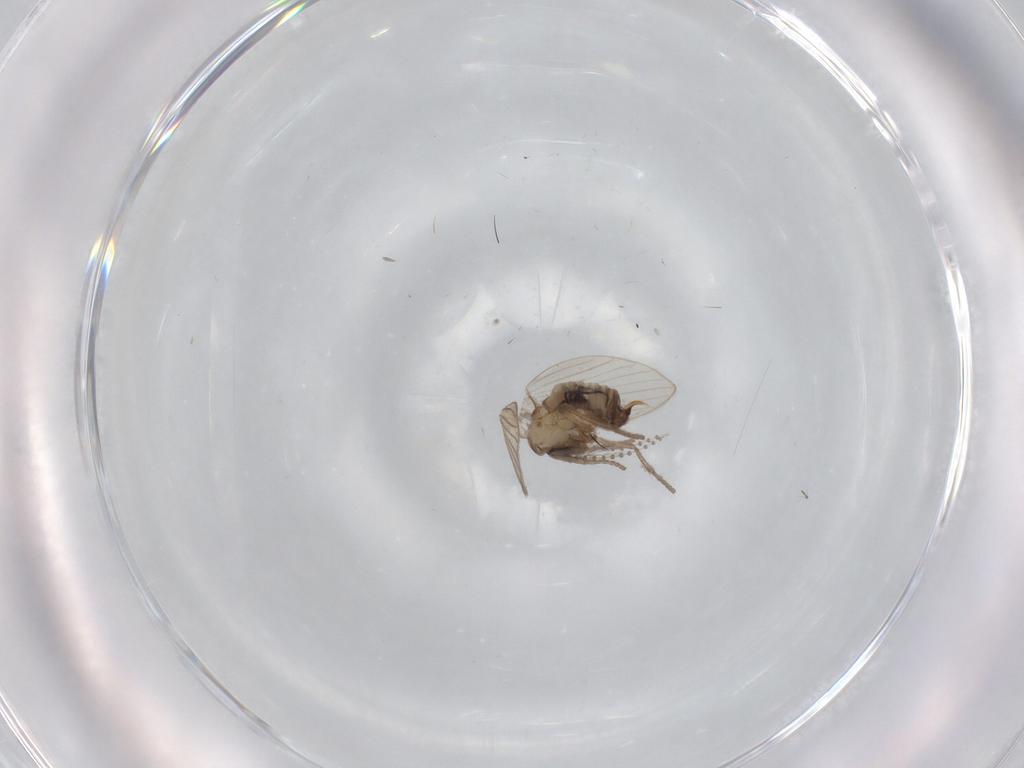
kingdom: Animalia
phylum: Arthropoda
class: Insecta
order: Diptera
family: Psychodidae
